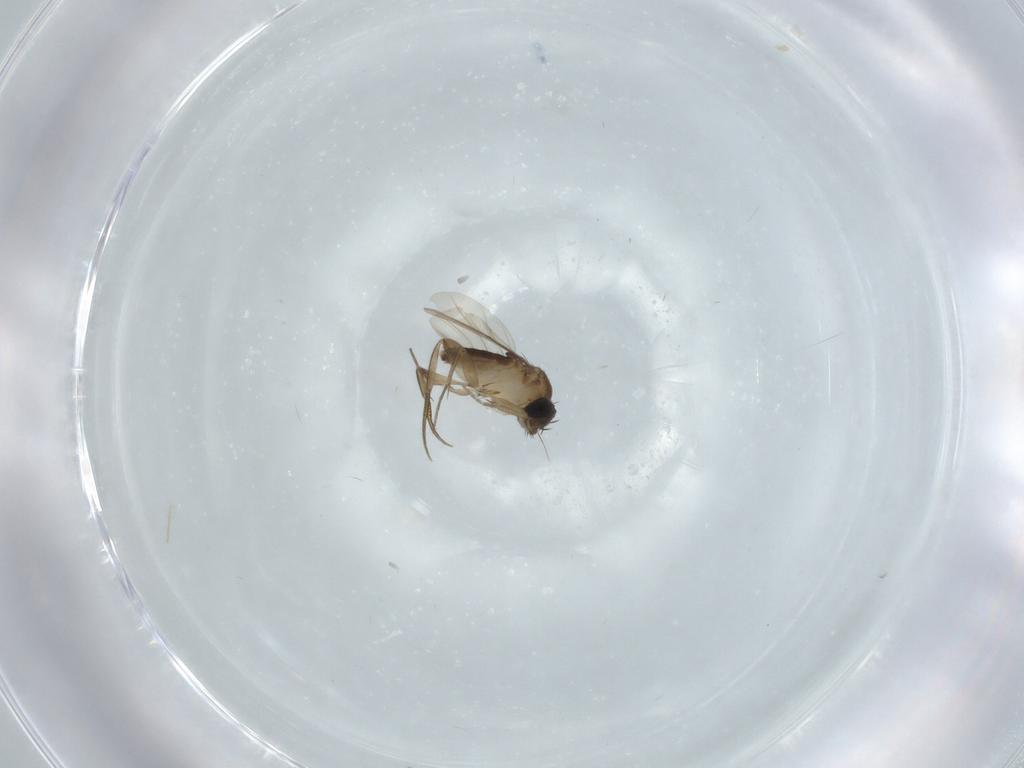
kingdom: Animalia
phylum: Arthropoda
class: Insecta
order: Diptera
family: Phoridae
